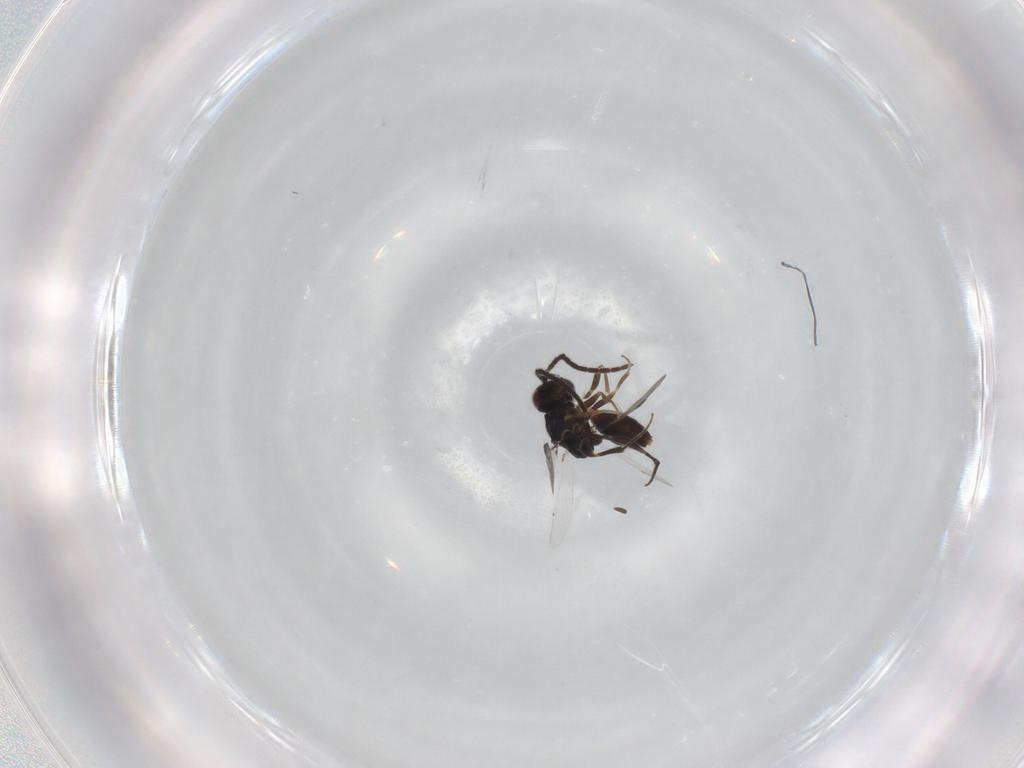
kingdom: Animalia
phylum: Arthropoda
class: Insecta
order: Hymenoptera
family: Megaspilidae
